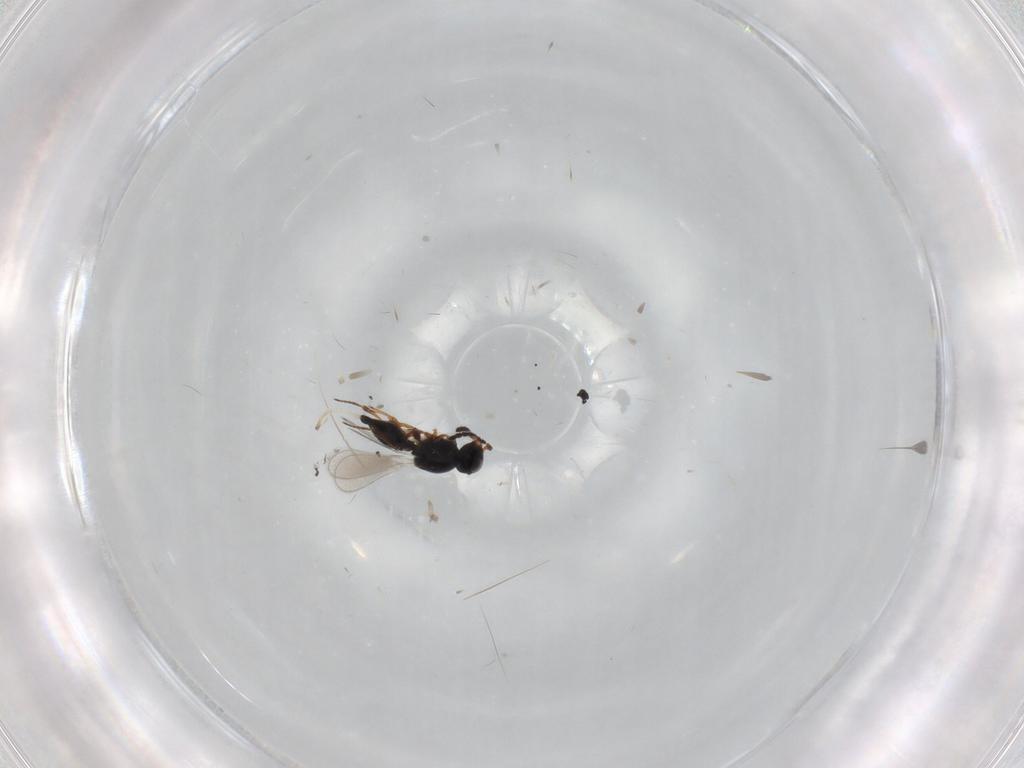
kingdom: Animalia
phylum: Arthropoda
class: Insecta
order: Hymenoptera
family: Platygastridae
